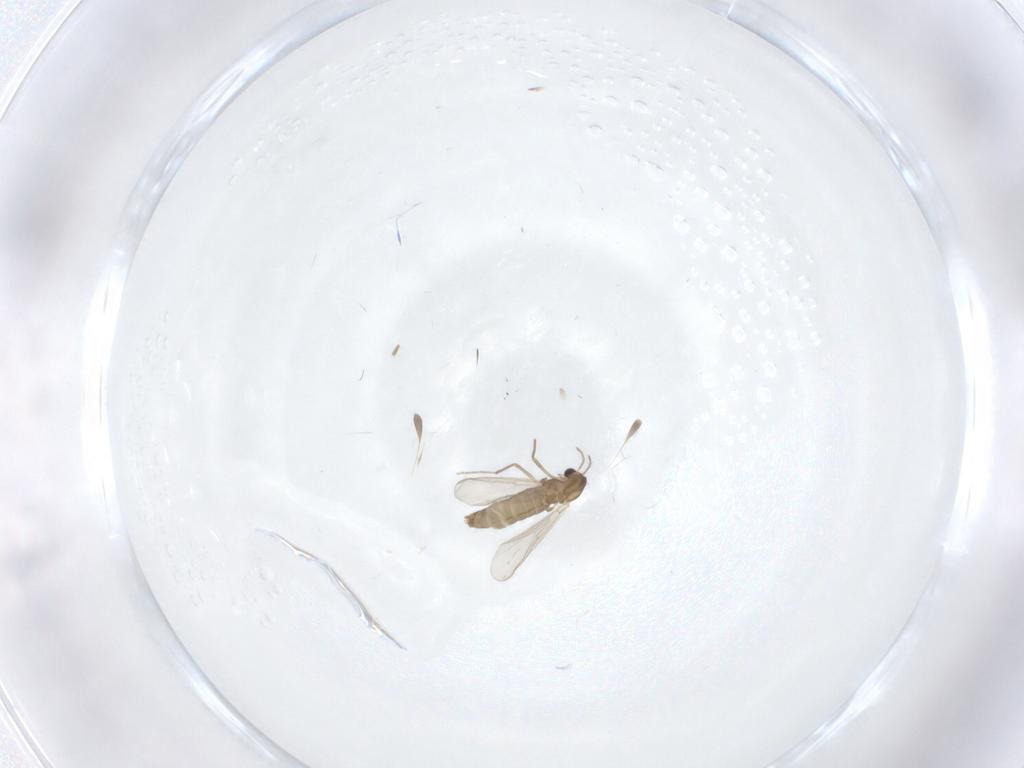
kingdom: Animalia
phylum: Arthropoda
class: Insecta
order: Diptera
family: Chironomidae
